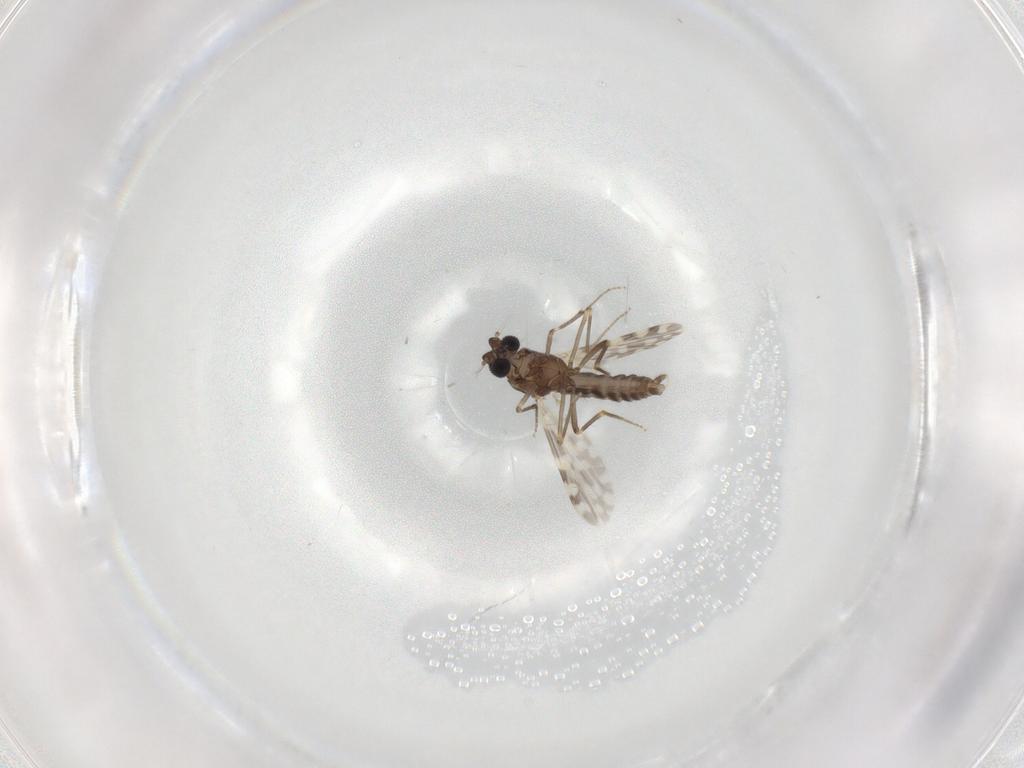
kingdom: Animalia
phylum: Arthropoda
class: Insecta
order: Diptera
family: Ceratopogonidae
